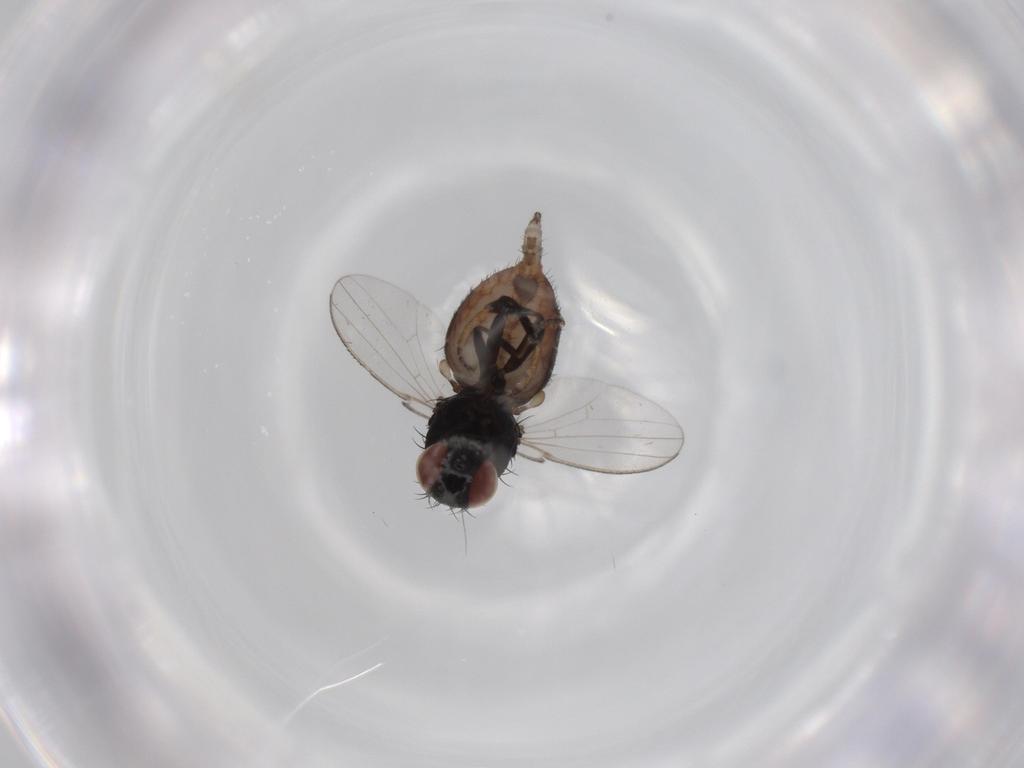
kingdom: Animalia
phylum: Arthropoda
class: Insecta
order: Diptera
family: Milichiidae
